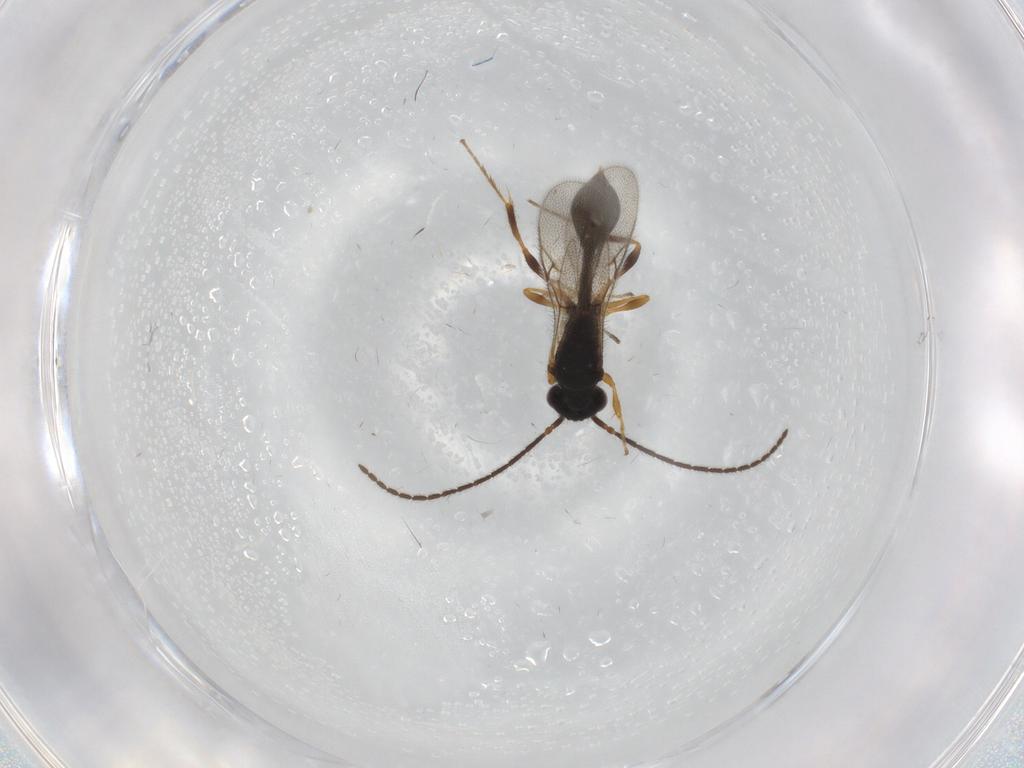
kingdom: Animalia
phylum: Arthropoda
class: Insecta
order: Hymenoptera
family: Diapriidae
